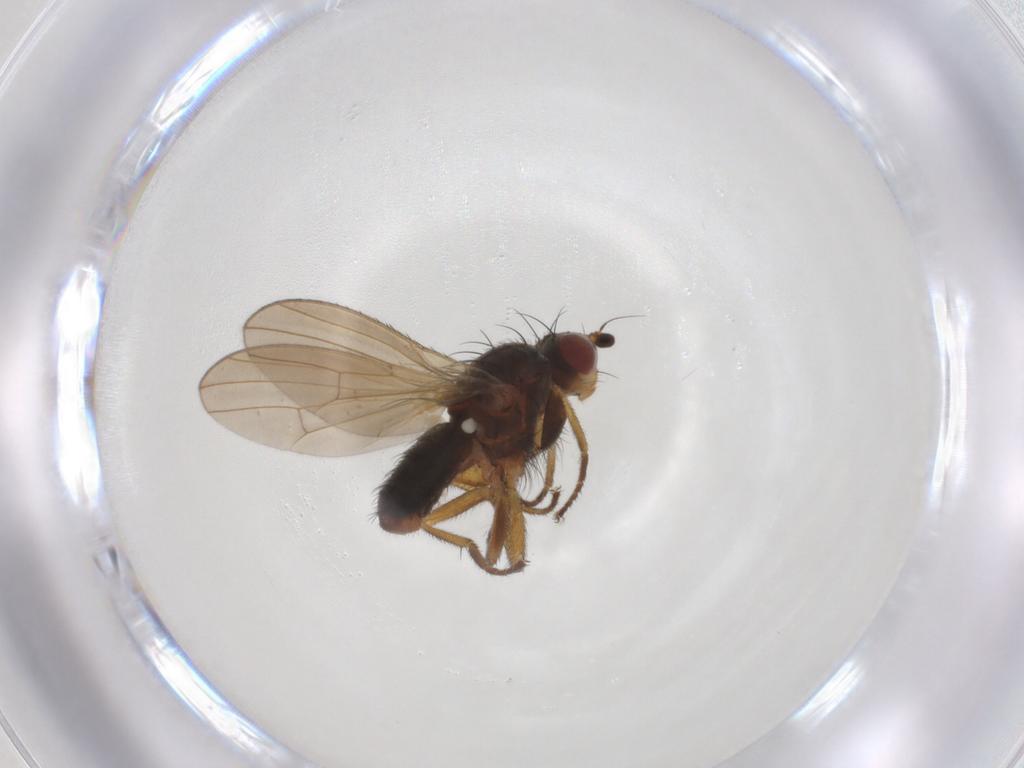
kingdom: Animalia
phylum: Arthropoda
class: Insecta
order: Diptera
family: Heleomyzidae
